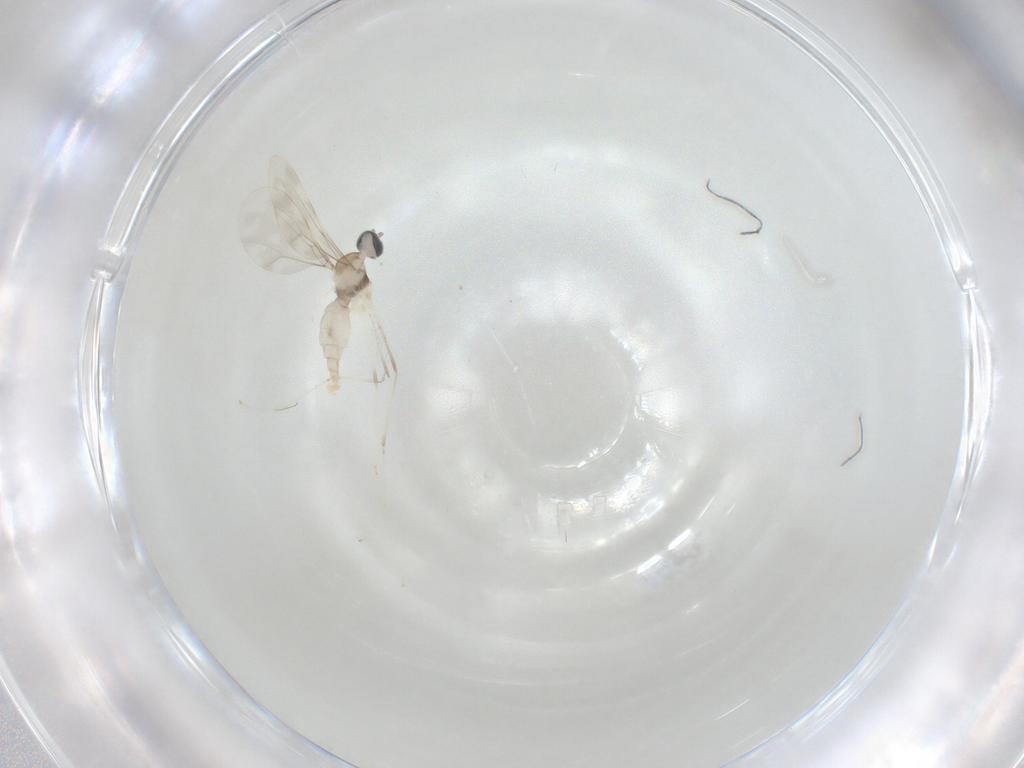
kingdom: Animalia
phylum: Arthropoda
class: Insecta
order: Diptera
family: Cecidomyiidae
